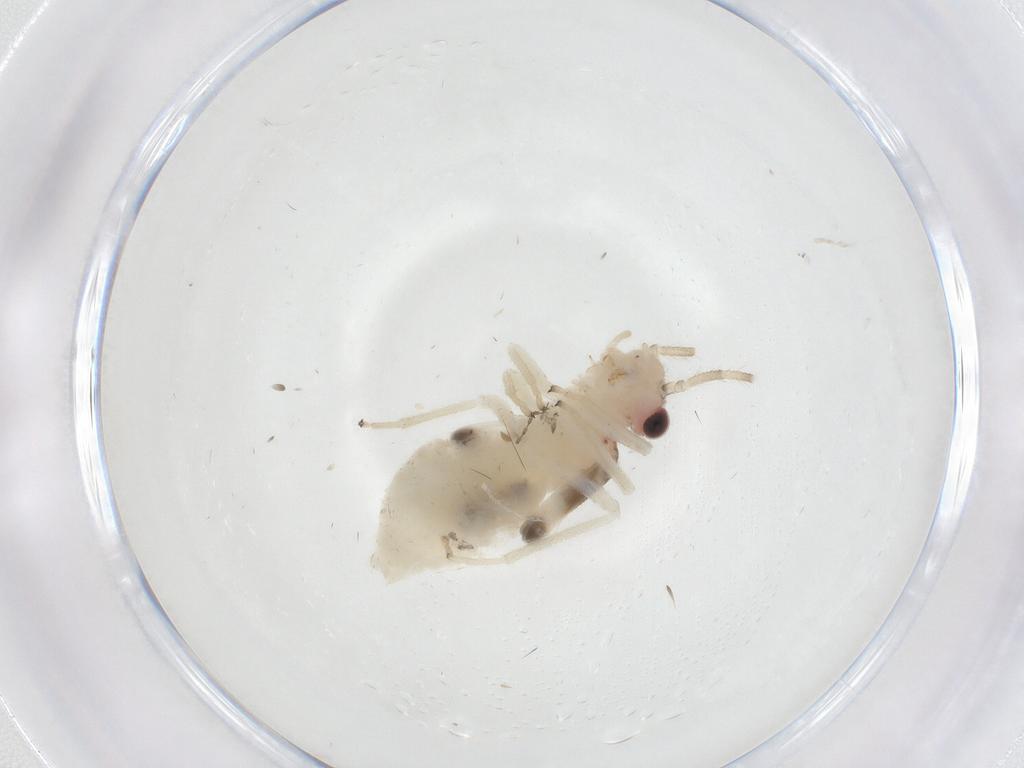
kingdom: Animalia
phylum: Arthropoda
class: Insecta
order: Psocodea
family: Amphipsocidae
